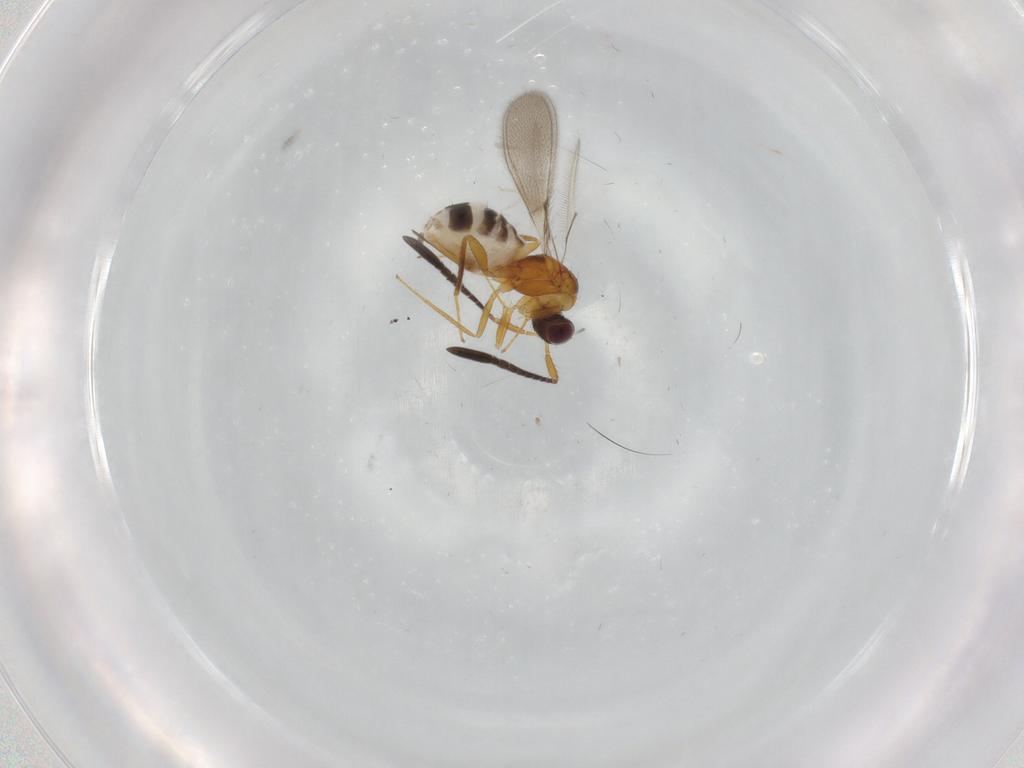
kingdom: Animalia
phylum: Arthropoda
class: Insecta
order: Hymenoptera
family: Formicidae
